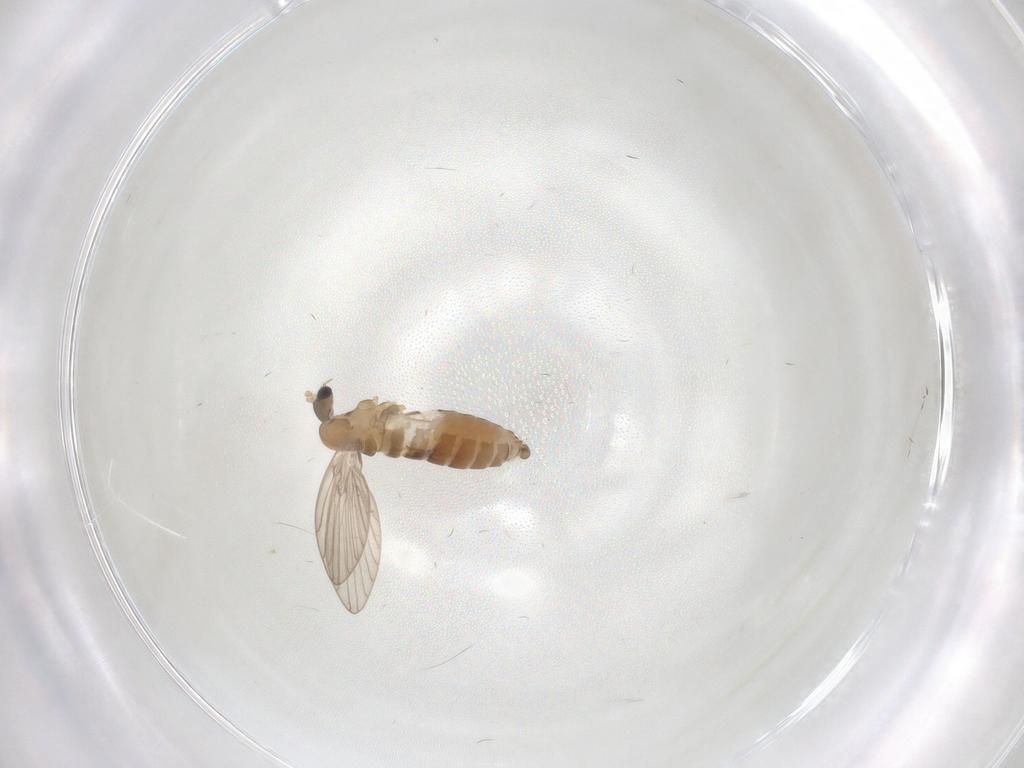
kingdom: Animalia
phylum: Arthropoda
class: Insecta
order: Diptera
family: Psychodidae
